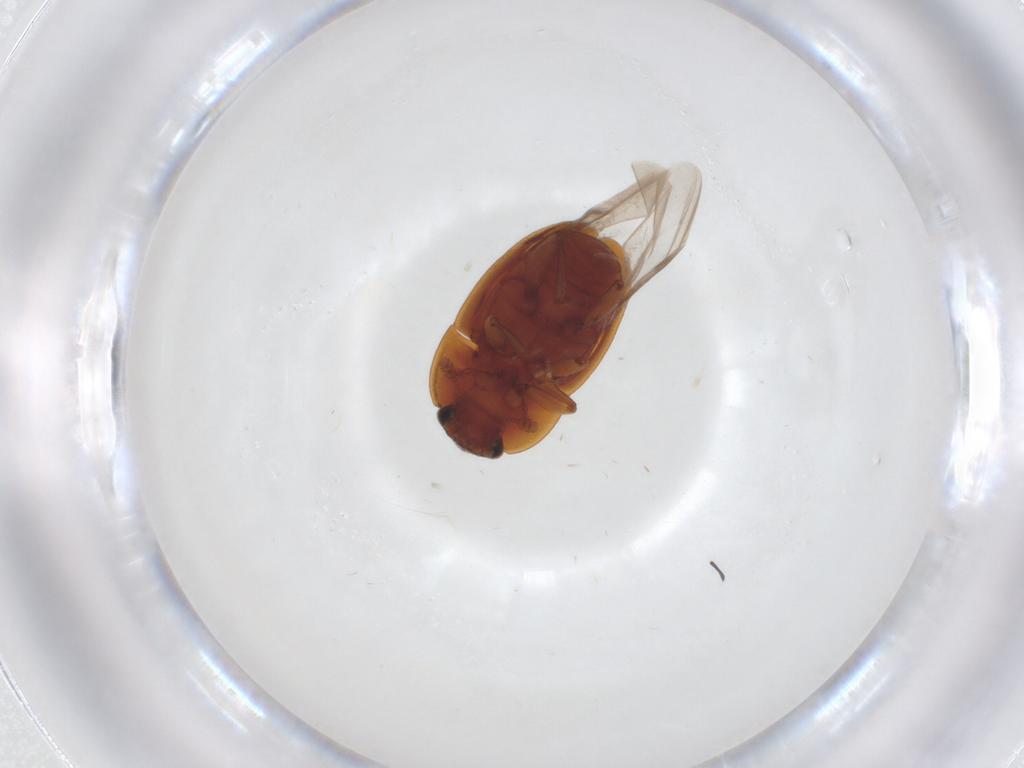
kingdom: Animalia
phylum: Arthropoda
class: Insecta
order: Coleoptera
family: Nitidulidae
